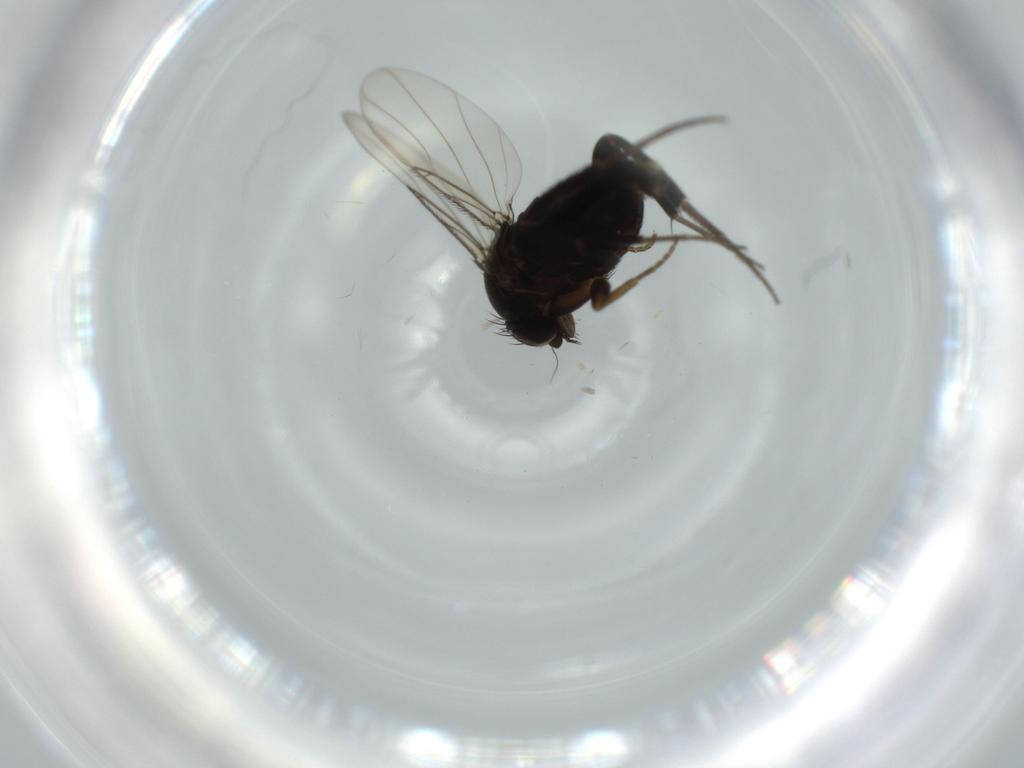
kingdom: Animalia
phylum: Arthropoda
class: Insecta
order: Diptera
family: Phoridae
